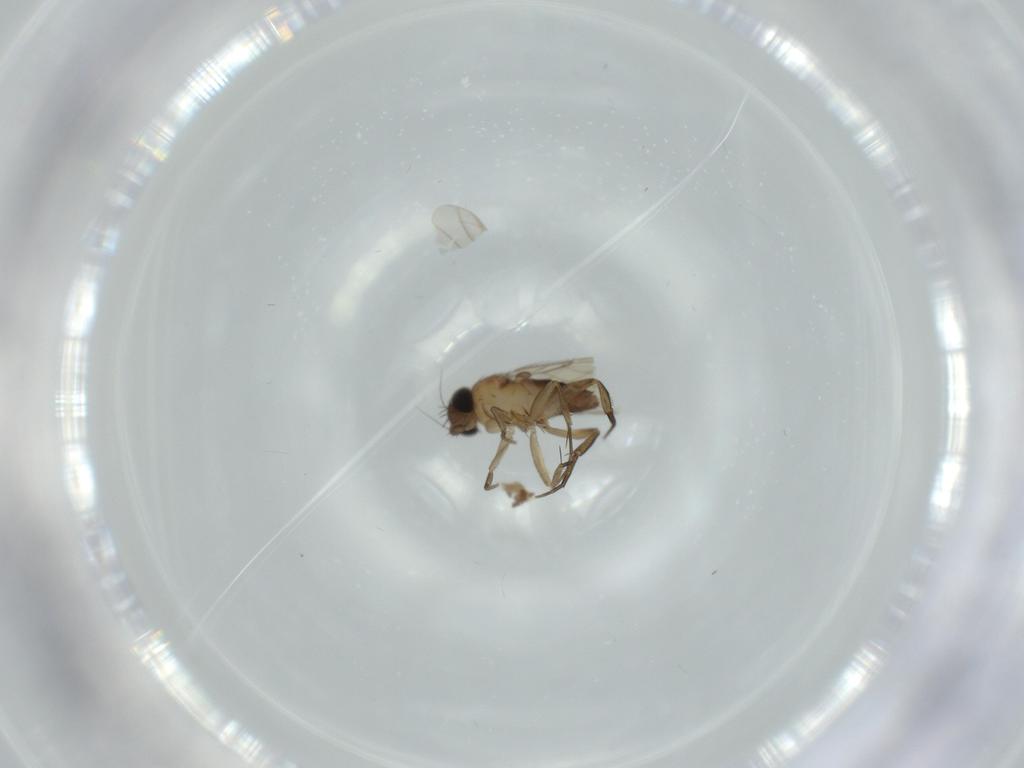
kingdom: Animalia
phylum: Arthropoda
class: Insecta
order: Diptera
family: Phoridae
